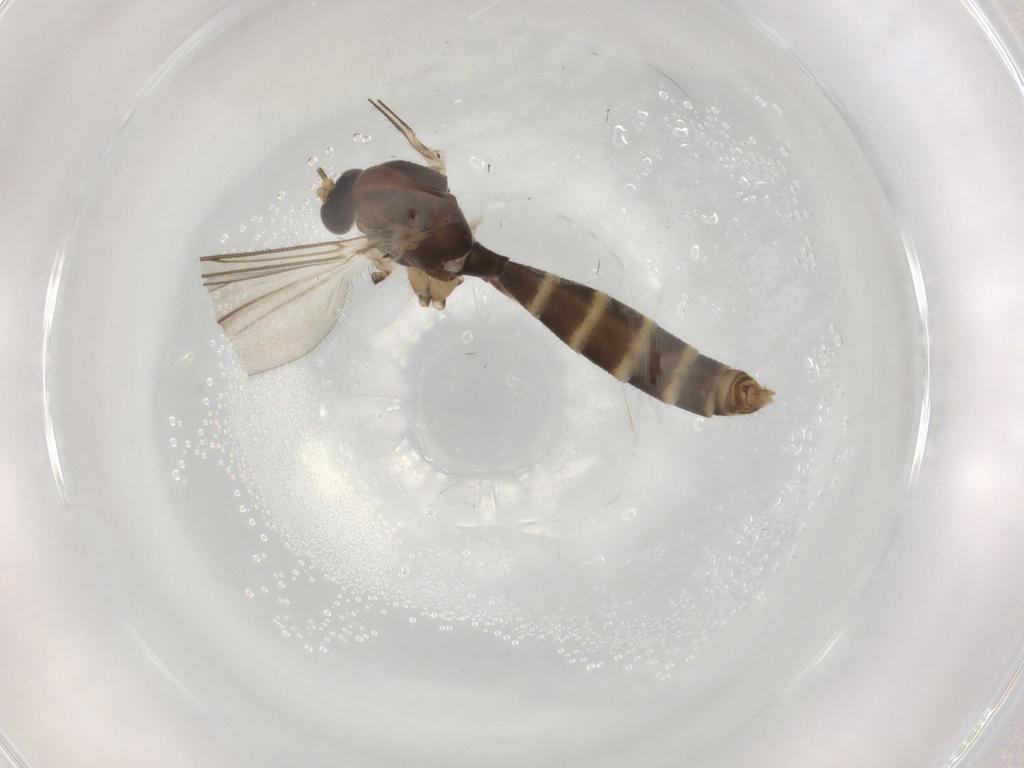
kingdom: Animalia
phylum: Arthropoda
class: Insecta
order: Diptera
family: Mycetophilidae
